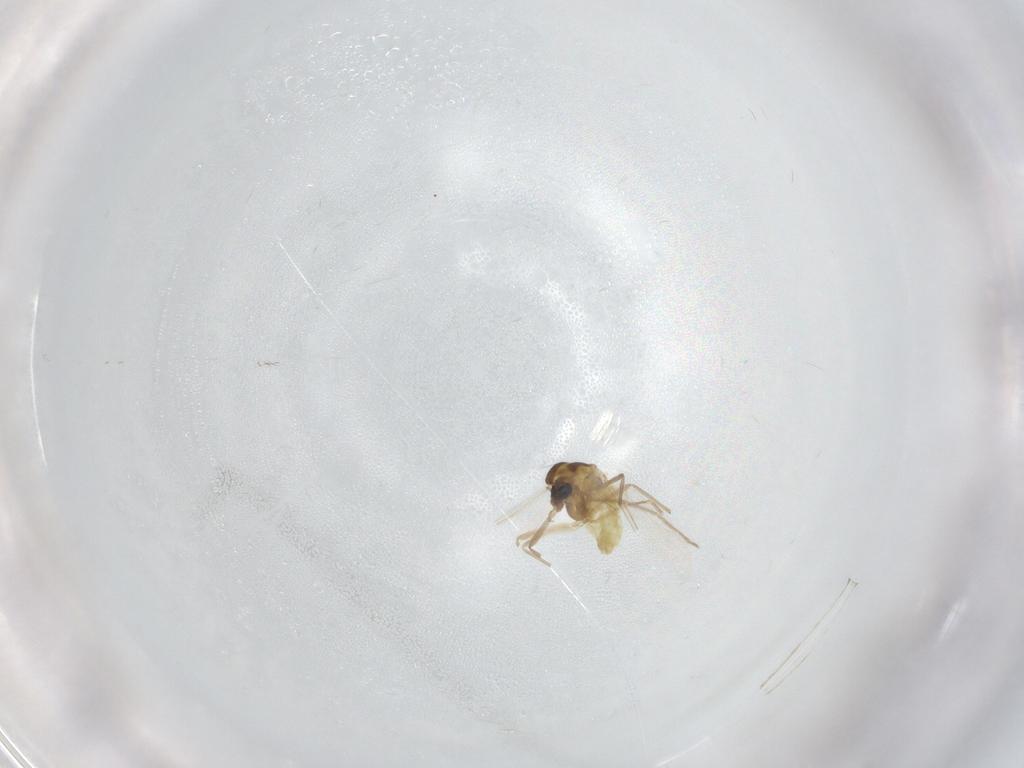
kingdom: Animalia
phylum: Arthropoda
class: Insecta
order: Diptera
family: Chironomidae
